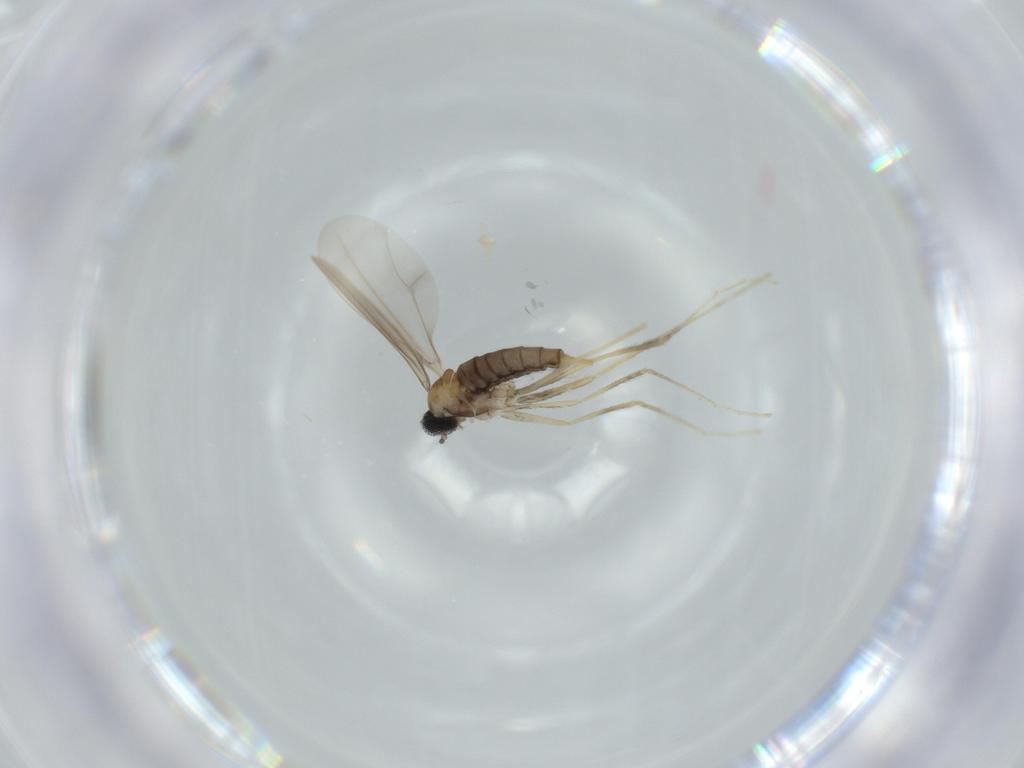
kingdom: Animalia
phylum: Arthropoda
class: Insecta
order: Diptera
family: Cecidomyiidae
